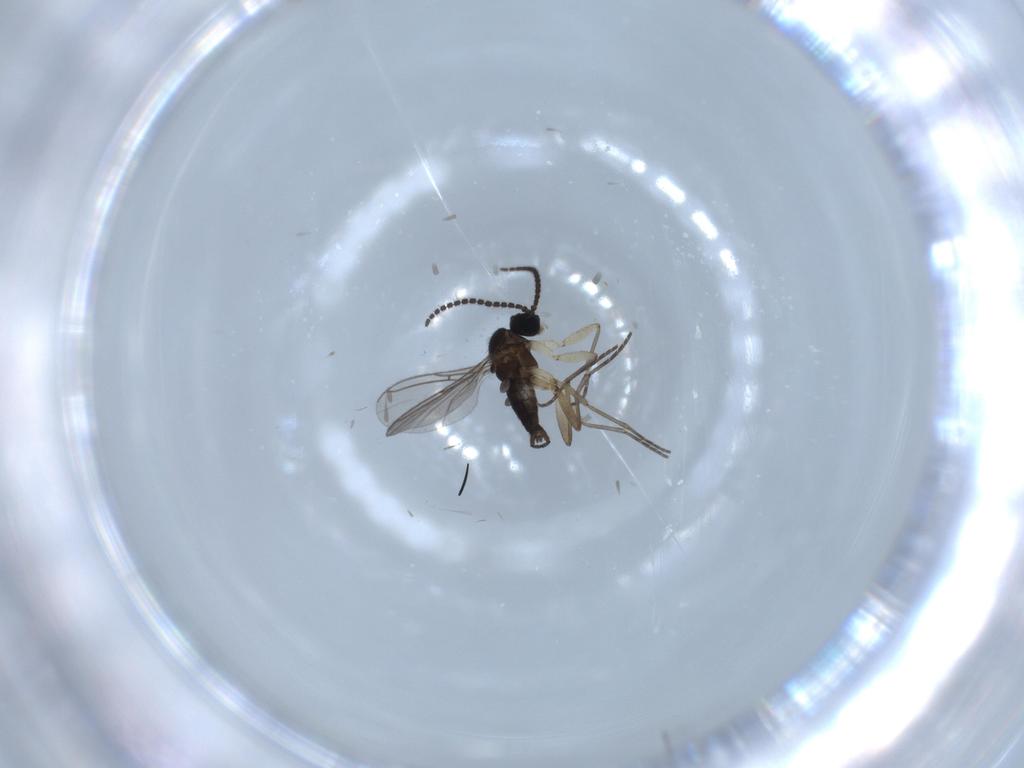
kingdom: Animalia
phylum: Arthropoda
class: Insecta
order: Diptera
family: Sciaridae
